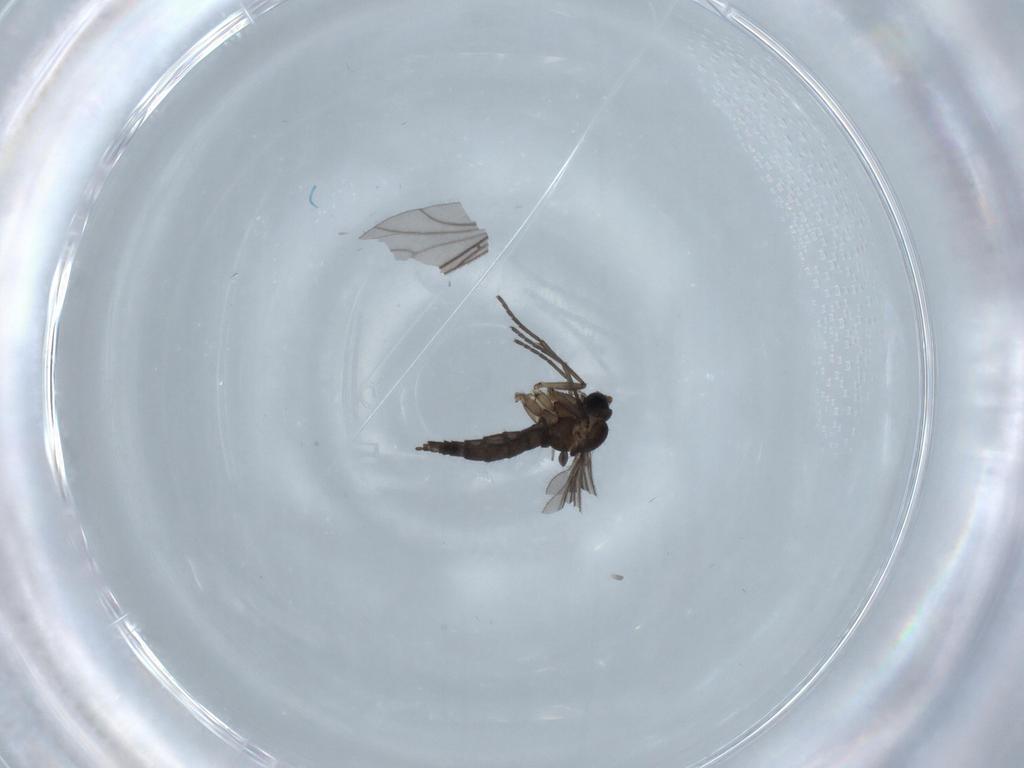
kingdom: Animalia
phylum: Arthropoda
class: Insecta
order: Diptera
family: Sciaridae
